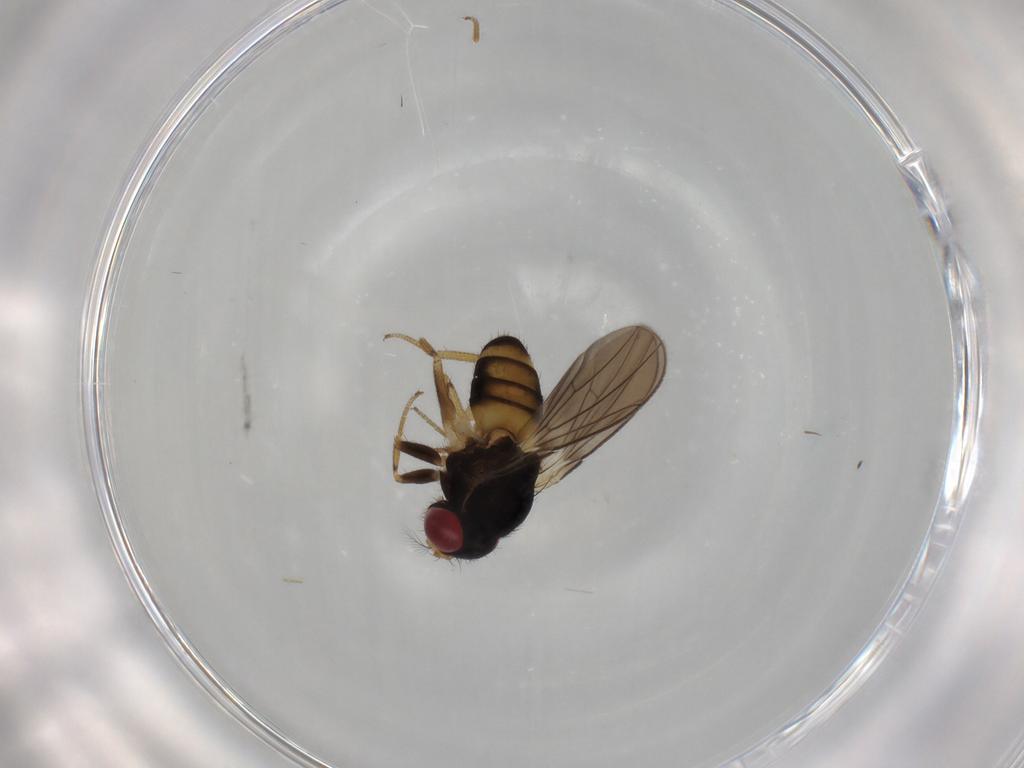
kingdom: Animalia
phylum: Arthropoda
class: Insecta
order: Diptera
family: Drosophilidae
